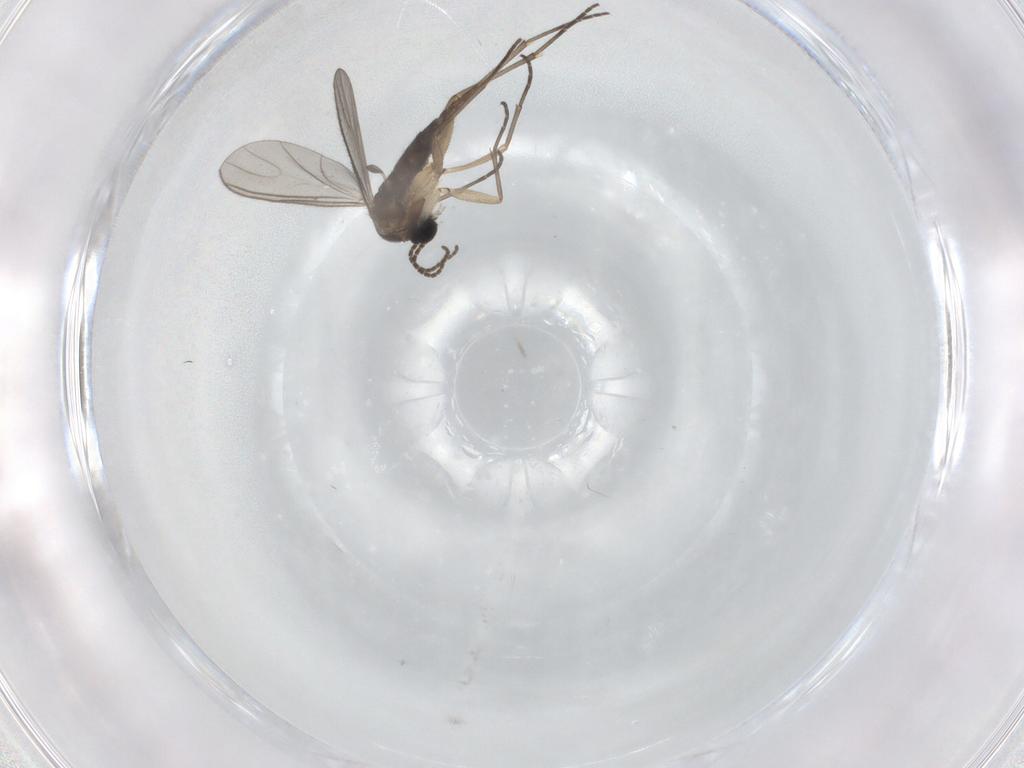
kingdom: Animalia
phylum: Arthropoda
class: Insecta
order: Diptera
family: Sciaridae
